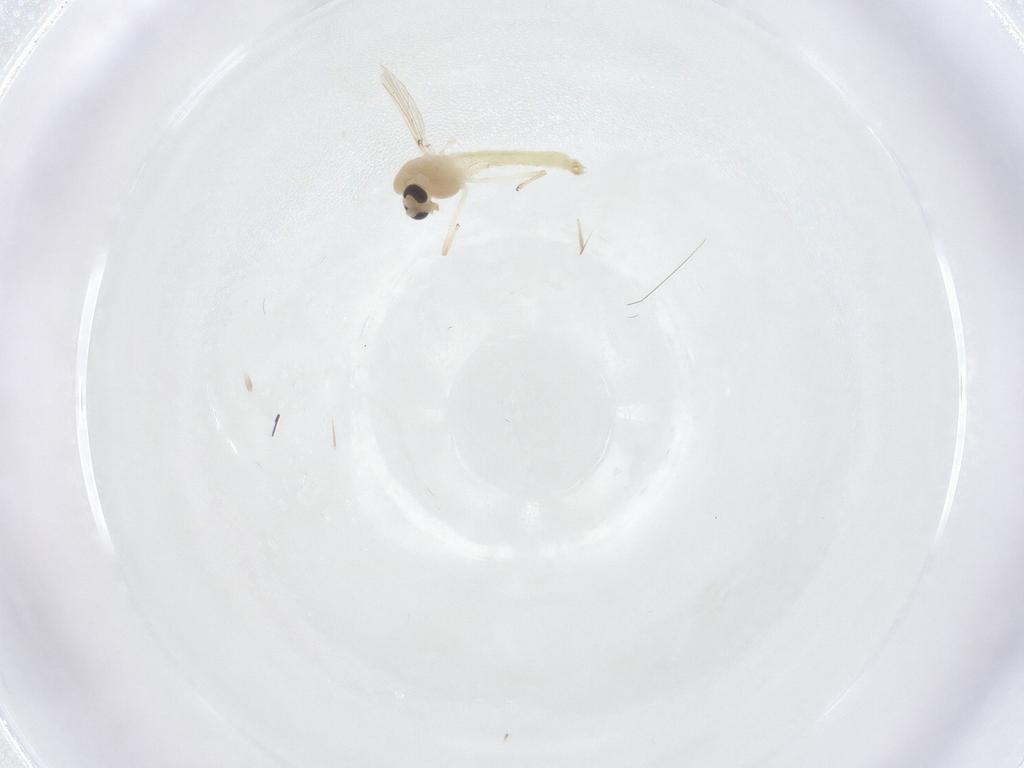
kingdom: Animalia
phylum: Arthropoda
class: Insecta
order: Diptera
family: Chironomidae
